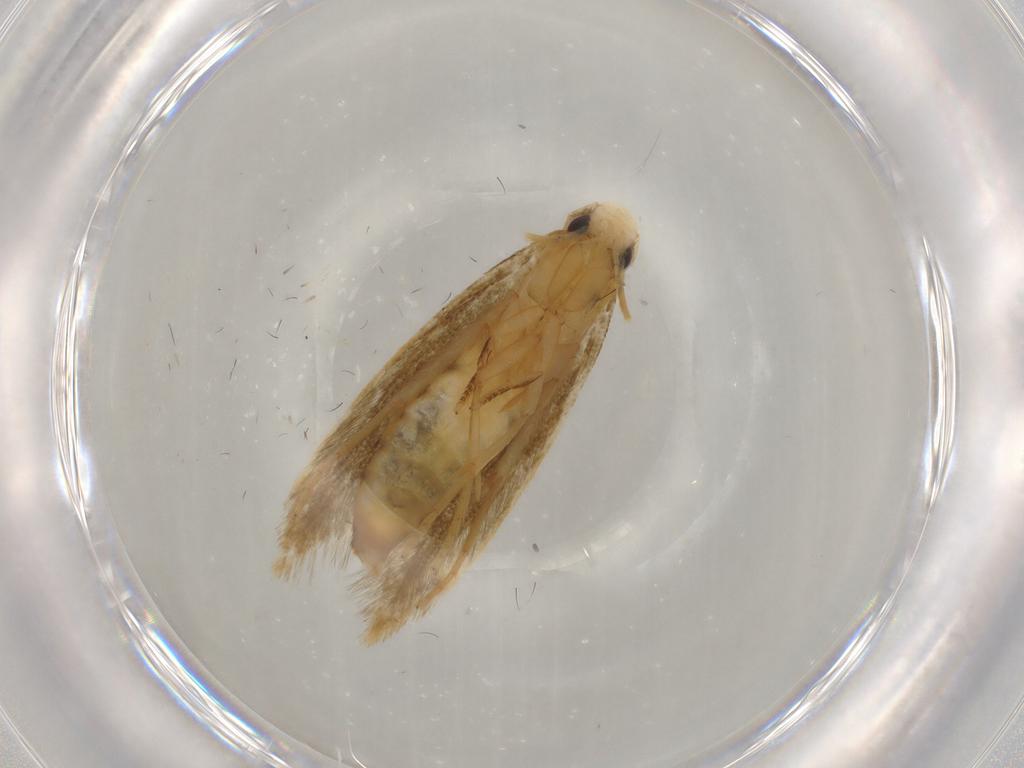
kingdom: Animalia
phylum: Arthropoda
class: Insecta
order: Lepidoptera
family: Tineidae
